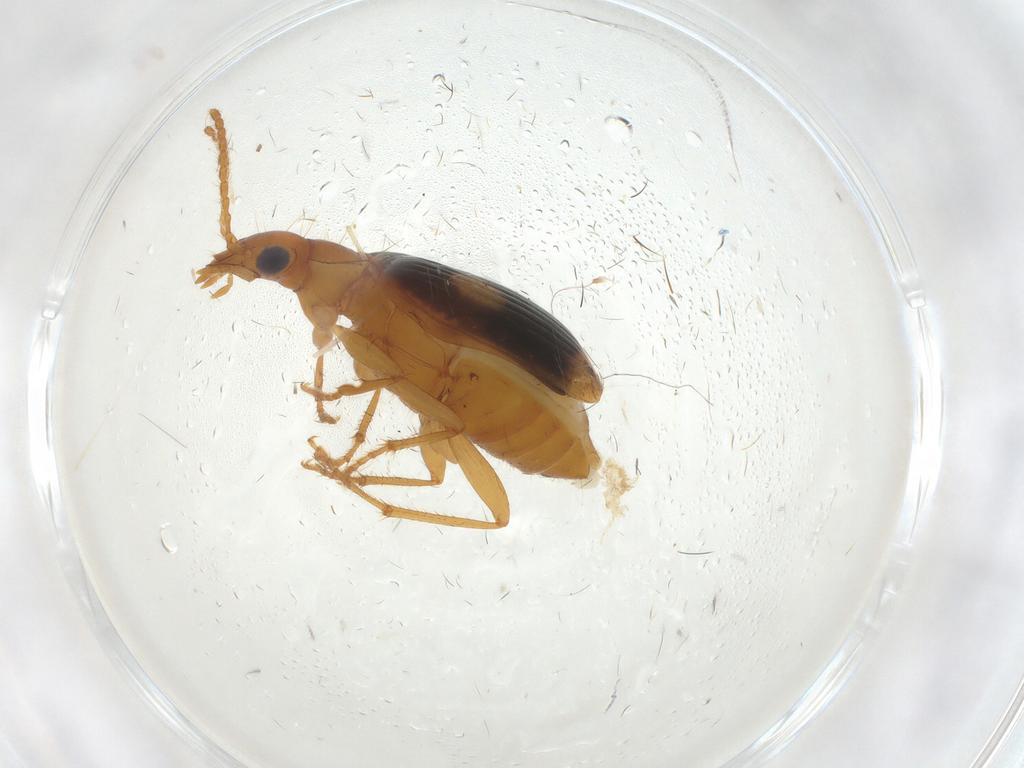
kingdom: Animalia
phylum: Arthropoda
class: Insecta
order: Coleoptera
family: Carabidae
